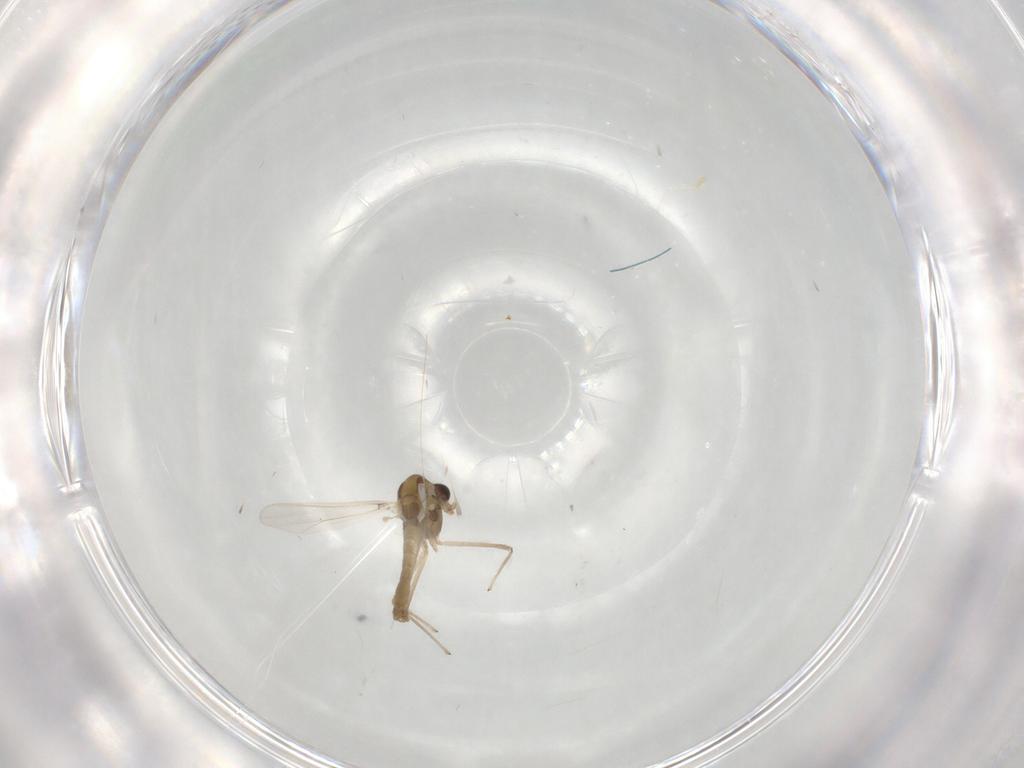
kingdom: Animalia
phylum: Arthropoda
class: Insecta
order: Diptera
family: Chironomidae
